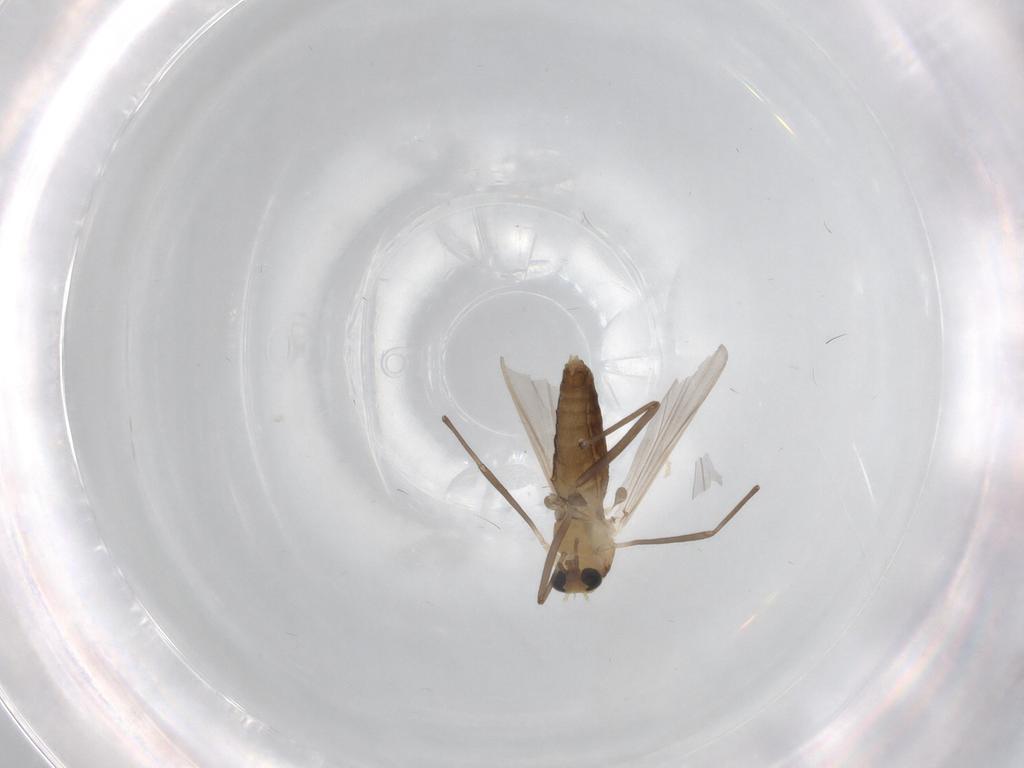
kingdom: Animalia
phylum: Arthropoda
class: Insecta
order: Diptera
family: Chironomidae
